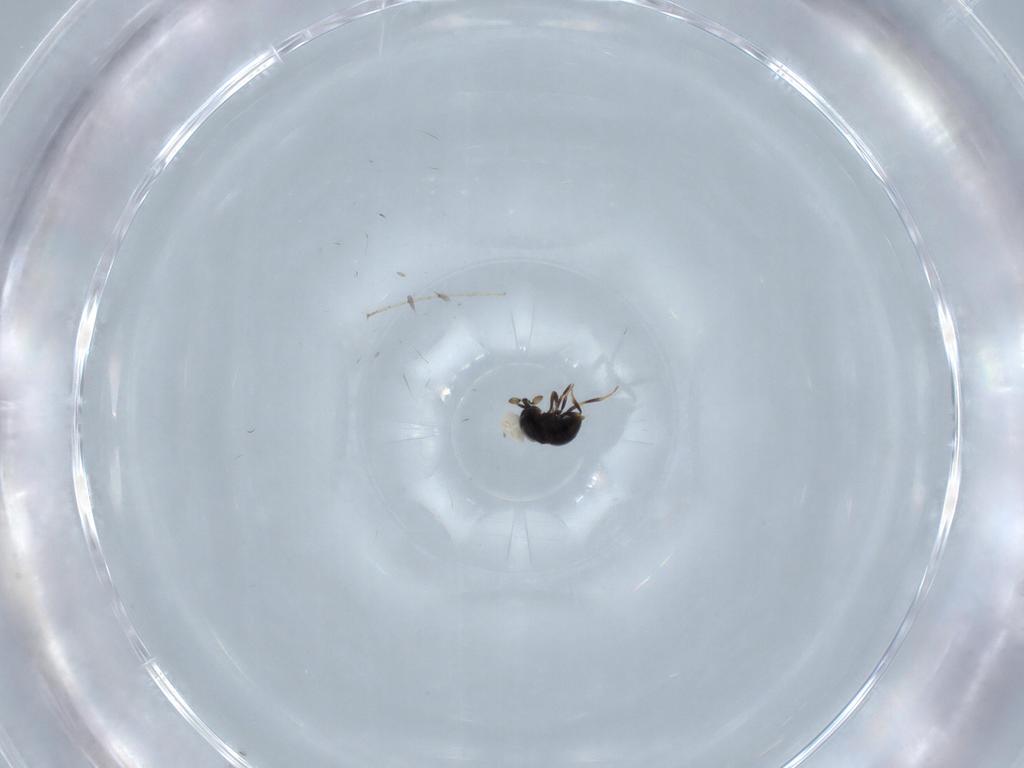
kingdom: Animalia
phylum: Arthropoda
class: Insecta
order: Hymenoptera
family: Scelionidae
